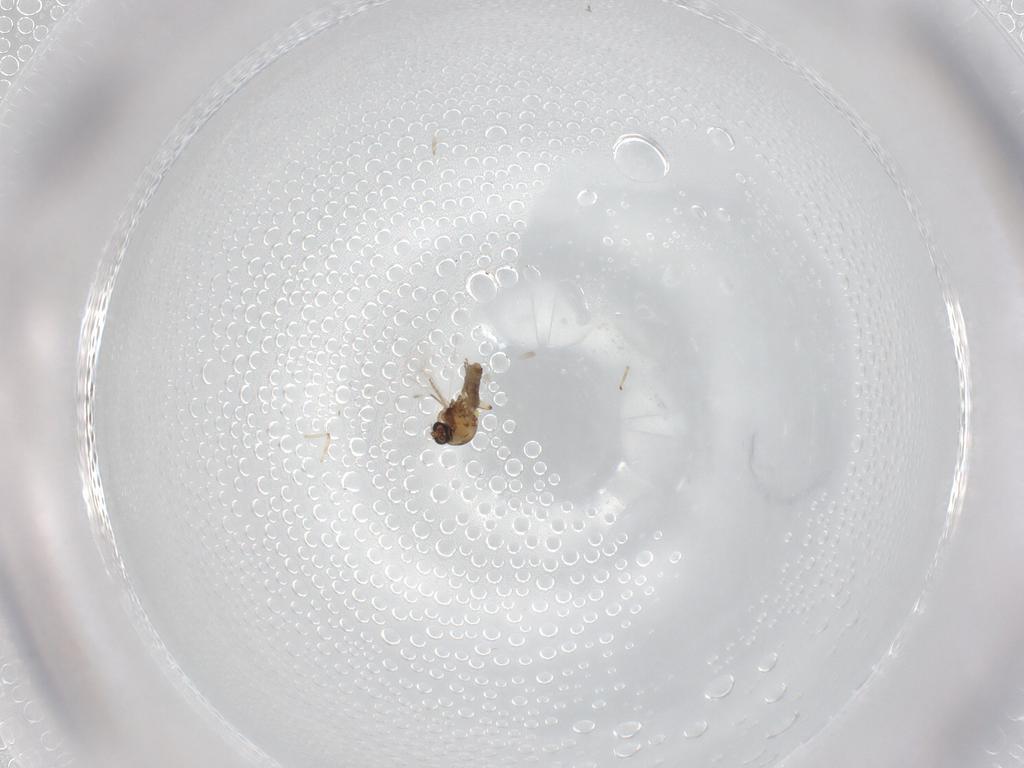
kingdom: Animalia
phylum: Arthropoda
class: Insecta
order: Diptera
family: Ceratopogonidae
